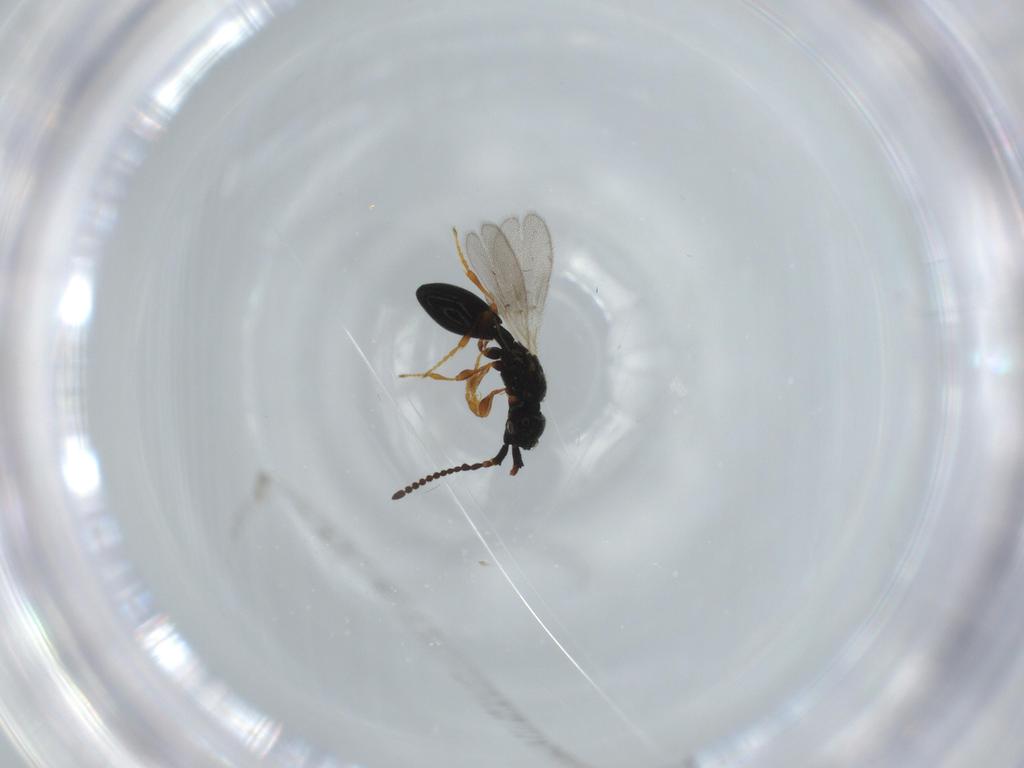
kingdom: Animalia
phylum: Arthropoda
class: Insecta
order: Hymenoptera
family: Diapriidae
